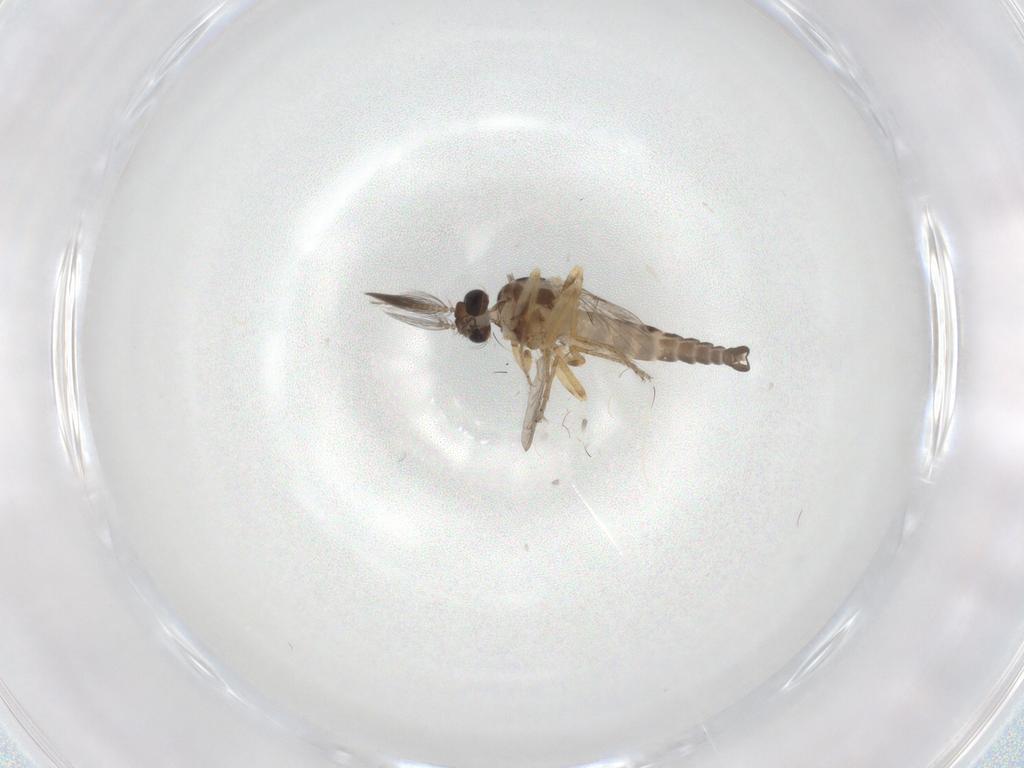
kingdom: Animalia
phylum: Arthropoda
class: Insecta
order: Diptera
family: Ceratopogonidae
